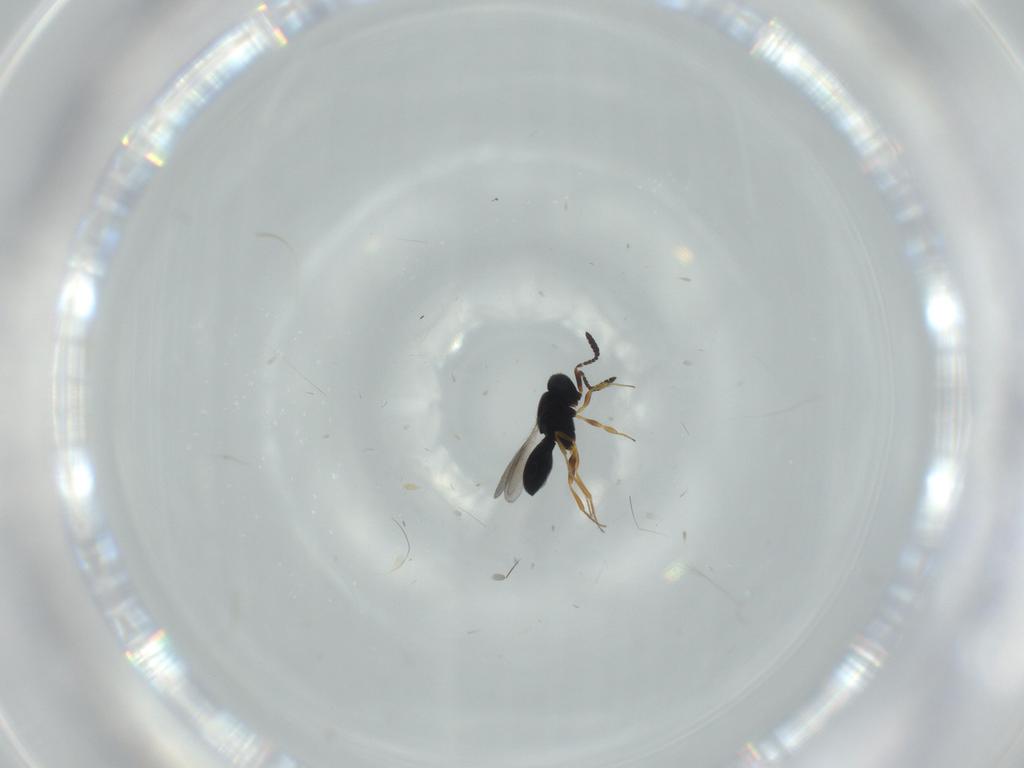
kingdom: Animalia
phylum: Arthropoda
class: Insecta
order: Hymenoptera
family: Scelionidae
